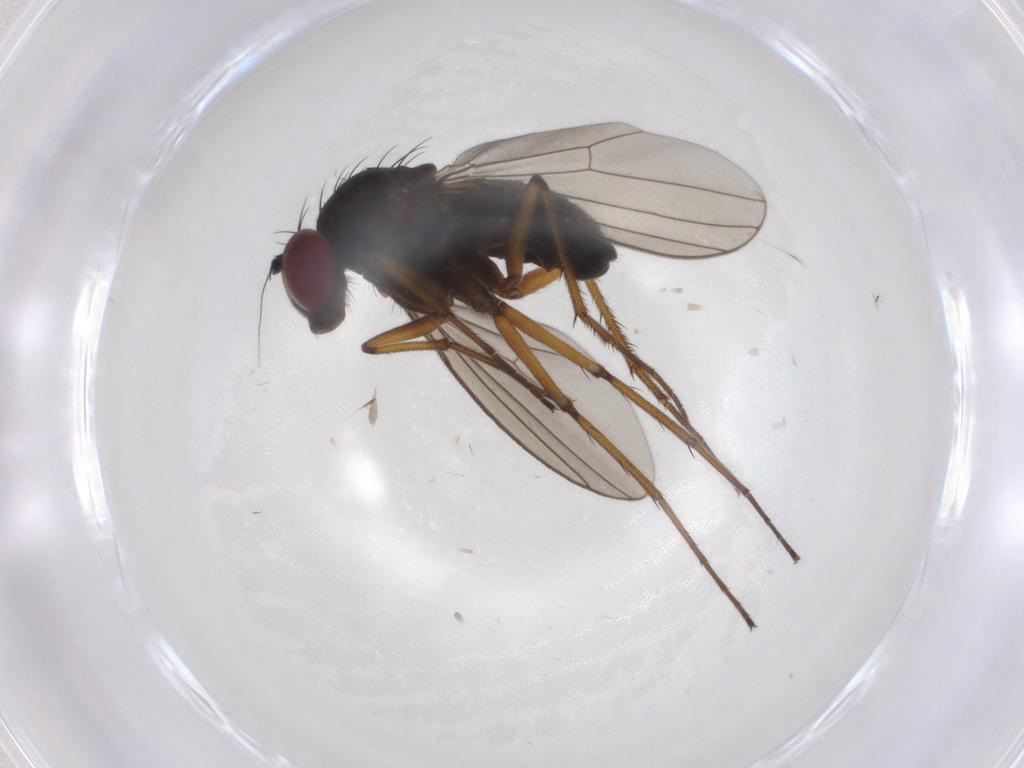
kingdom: Animalia
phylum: Arthropoda
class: Insecta
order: Diptera
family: Dolichopodidae
